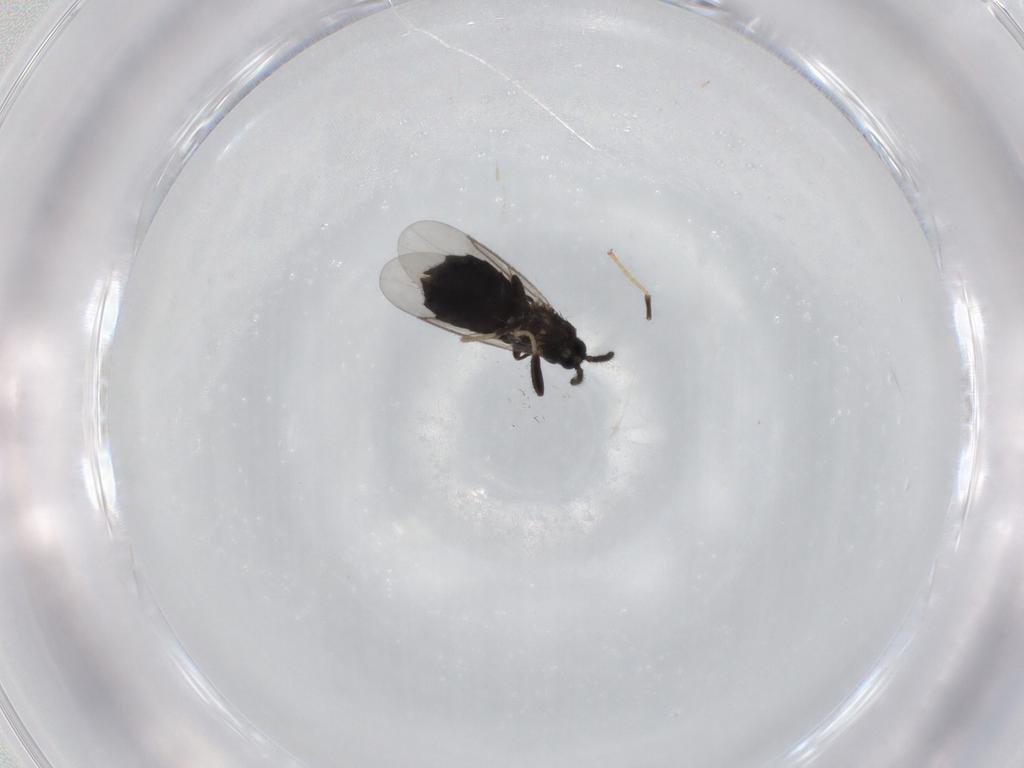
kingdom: Animalia
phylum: Arthropoda
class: Insecta
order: Diptera
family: Scatopsidae
